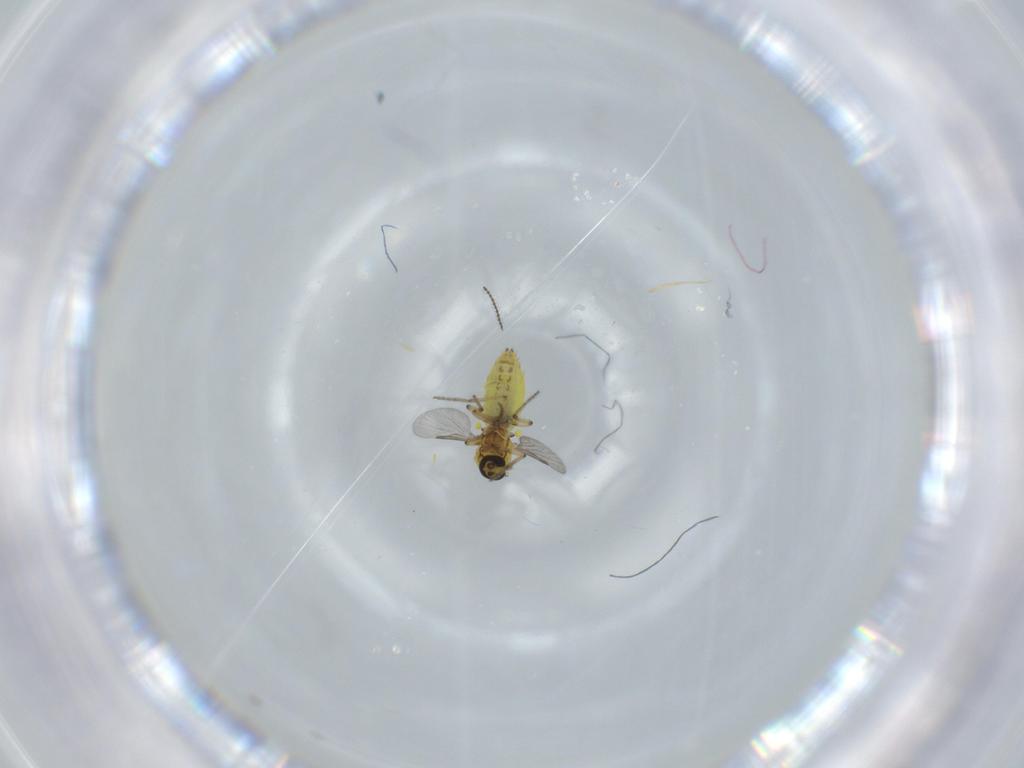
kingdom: Animalia
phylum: Arthropoda
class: Insecta
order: Diptera
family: Ceratopogonidae
